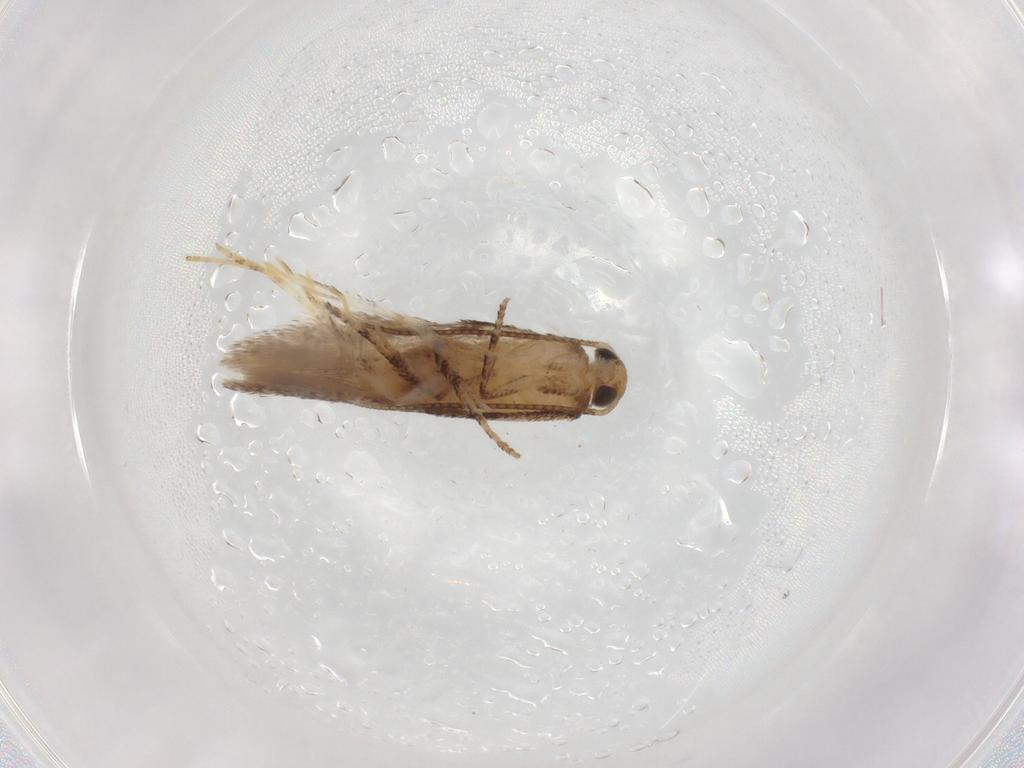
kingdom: Animalia
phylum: Arthropoda
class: Insecta
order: Lepidoptera
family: Gelechiidae
